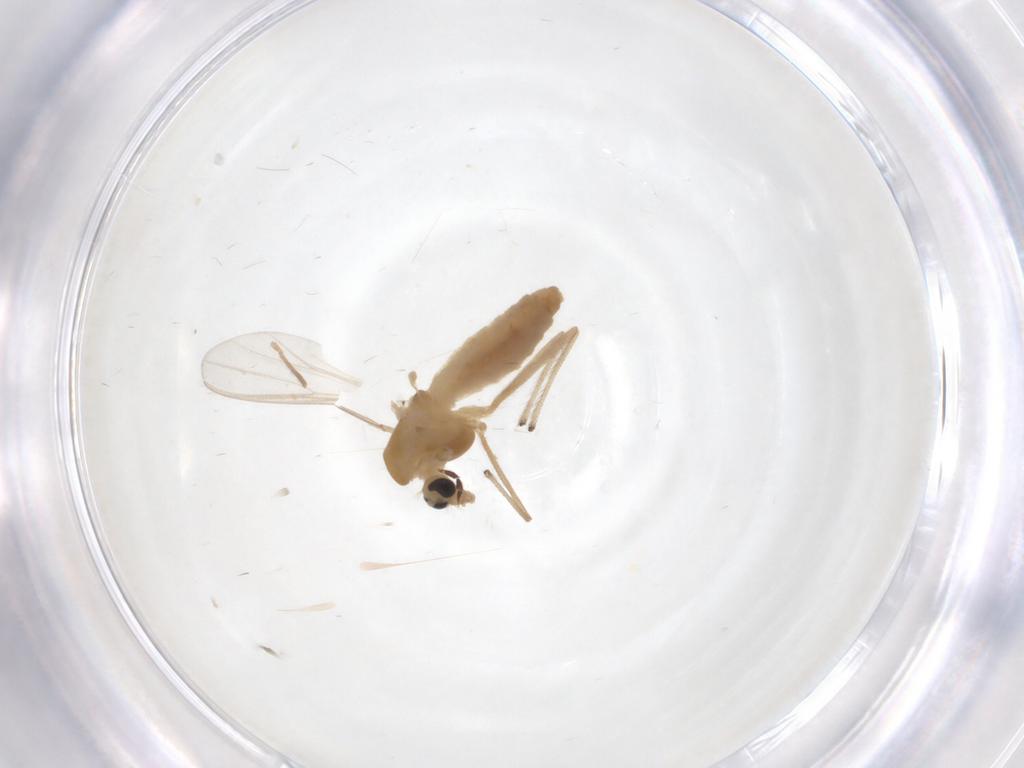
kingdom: Animalia
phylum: Arthropoda
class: Insecta
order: Diptera
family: Chironomidae
